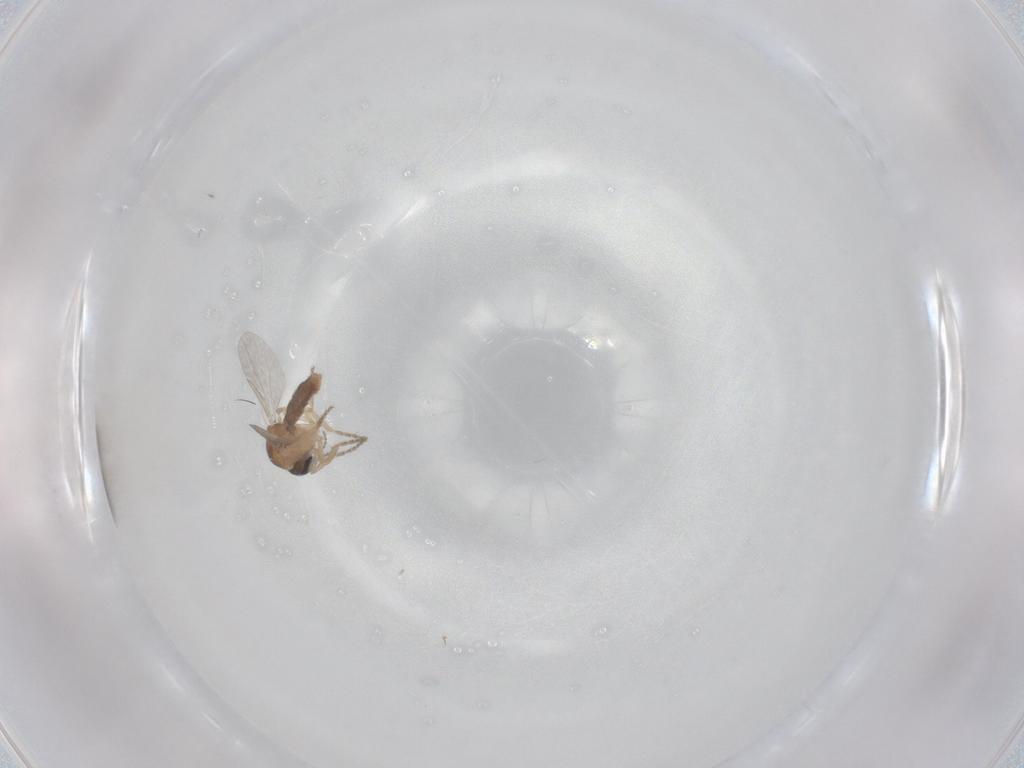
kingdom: Animalia
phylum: Arthropoda
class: Insecta
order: Diptera
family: Ceratopogonidae
